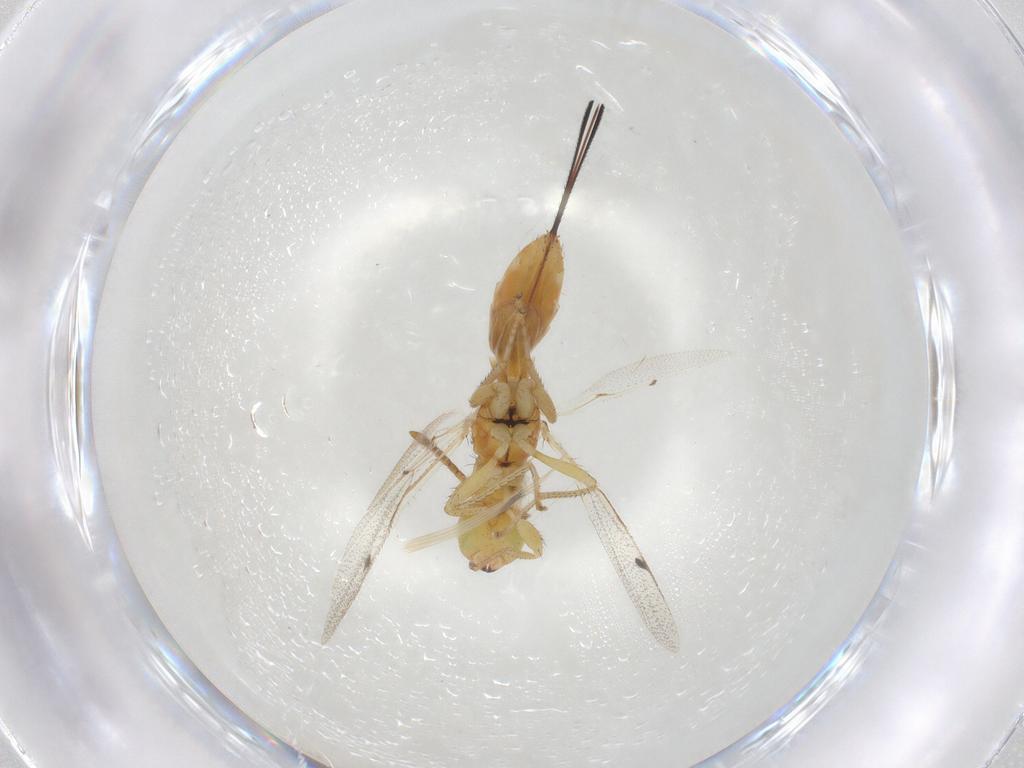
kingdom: Animalia
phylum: Arthropoda
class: Insecta
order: Hymenoptera
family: Megastigmidae
